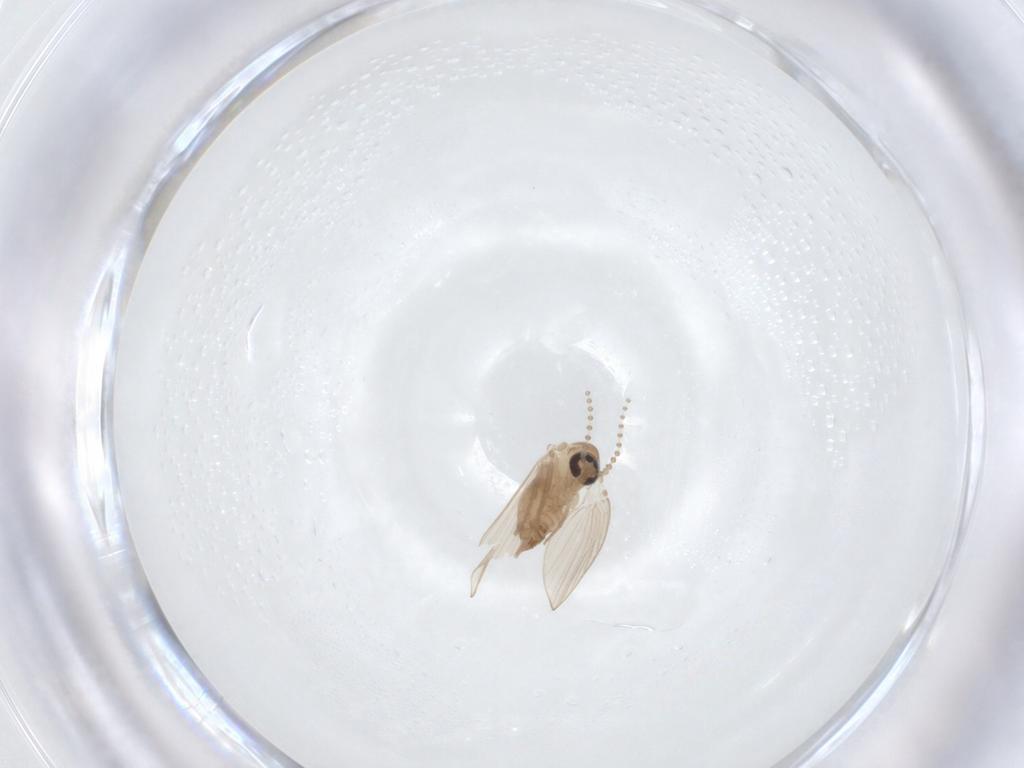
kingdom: Animalia
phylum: Arthropoda
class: Insecta
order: Diptera
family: Psychodidae
